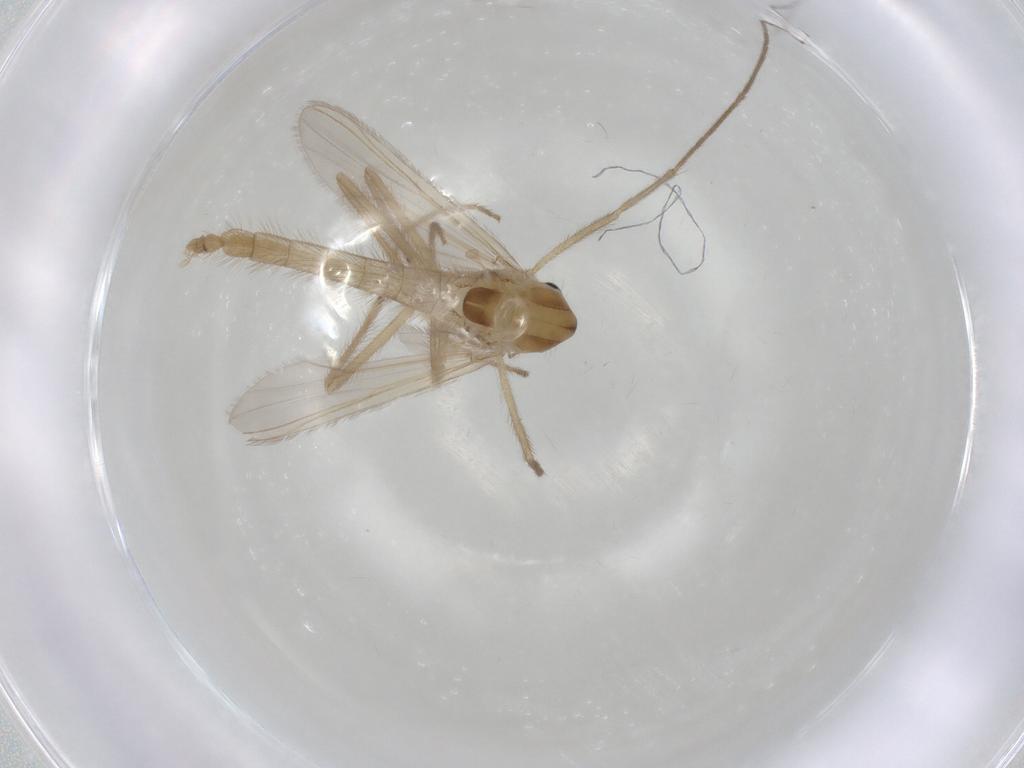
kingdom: Animalia
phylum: Arthropoda
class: Insecta
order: Diptera
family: Chironomidae
